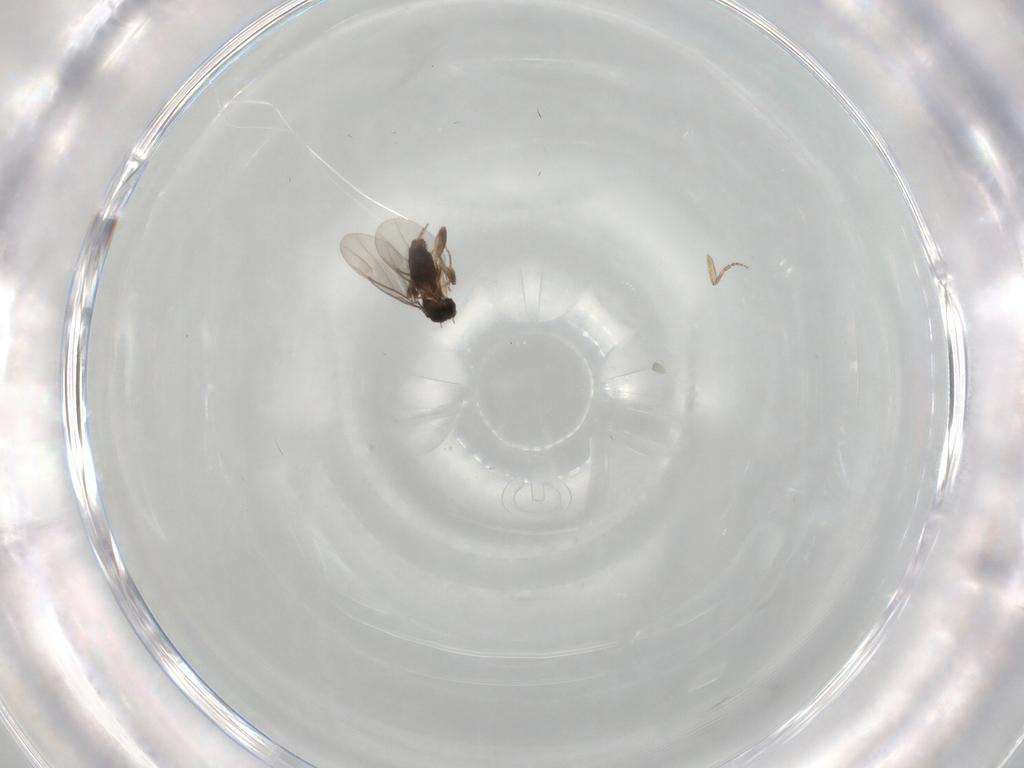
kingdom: Animalia
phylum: Arthropoda
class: Insecta
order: Diptera
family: Phoridae
